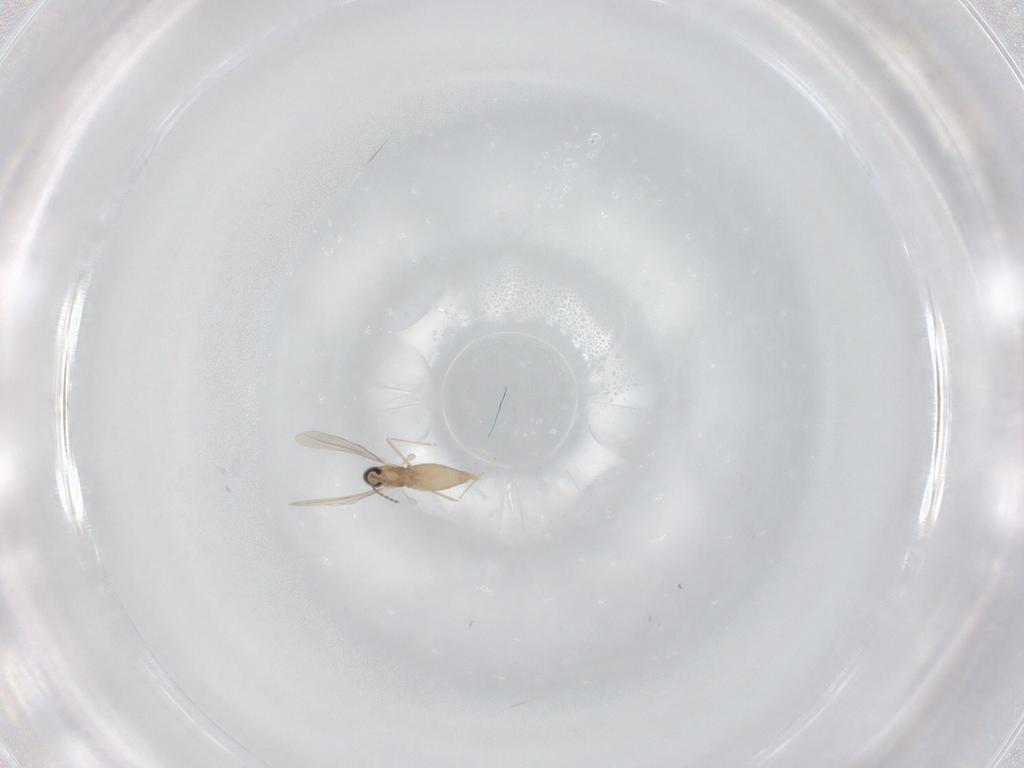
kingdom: Animalia
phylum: Arthropoda
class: Insecta
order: Diptera
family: Cecidomyiidae
